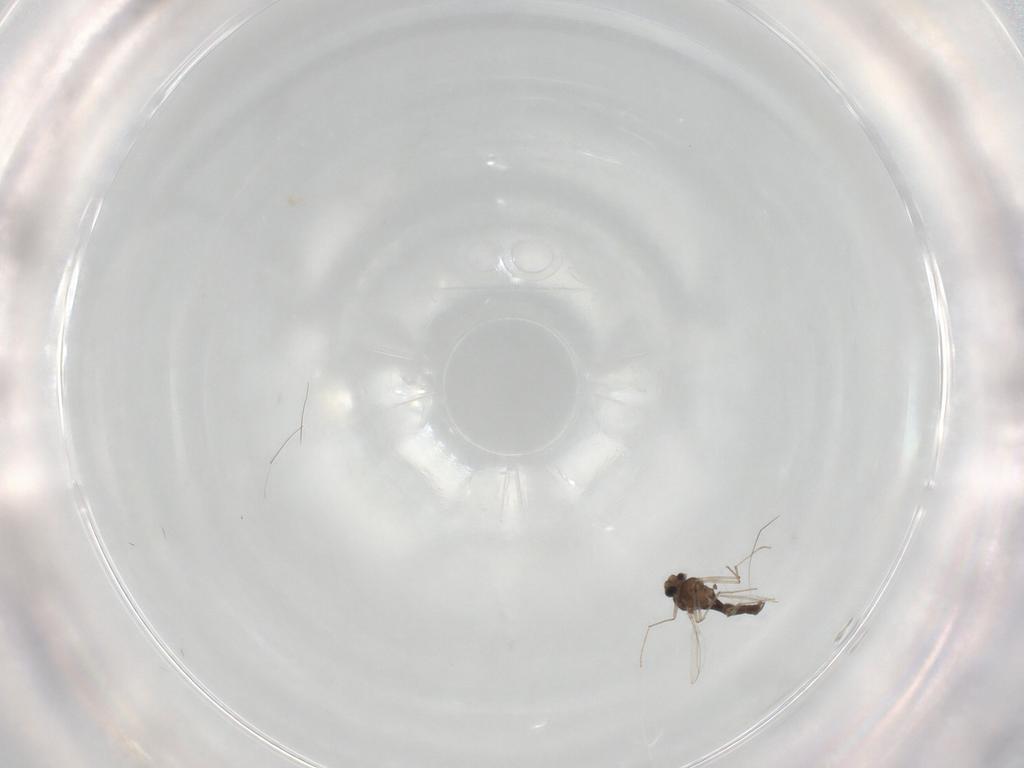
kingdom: Animalia
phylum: Arthropoda
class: Insecta
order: Diptera
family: Chironomidae
